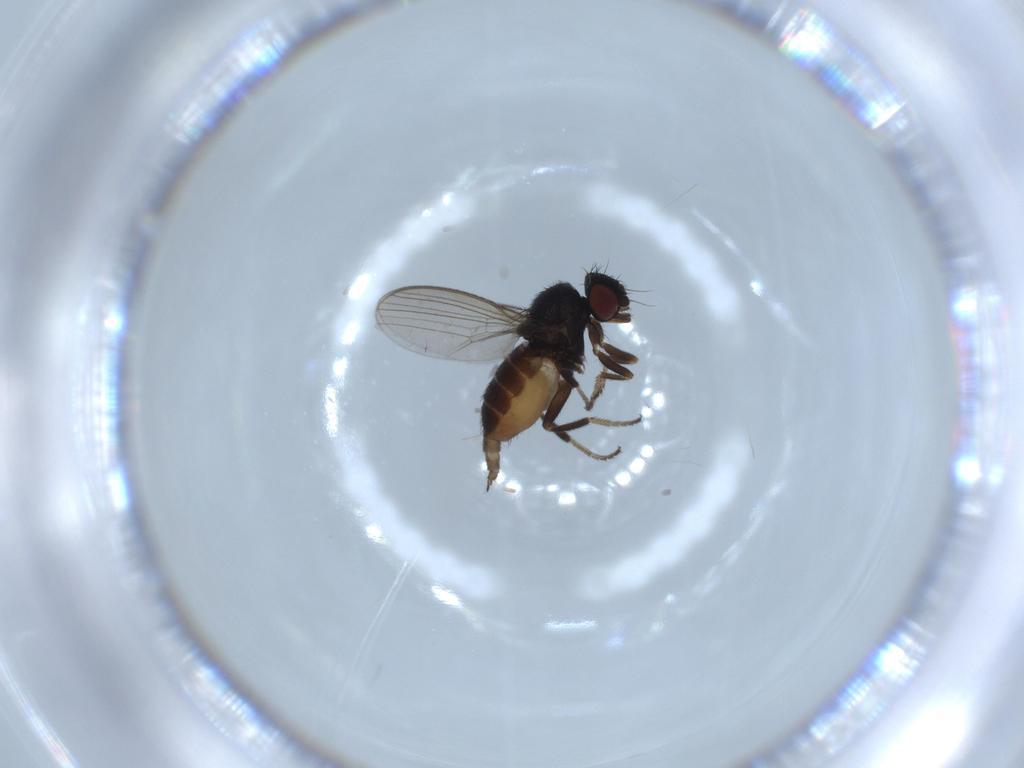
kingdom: Animalia
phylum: Arthropoda
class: Insecta
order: Diptera
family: Milichiidae
